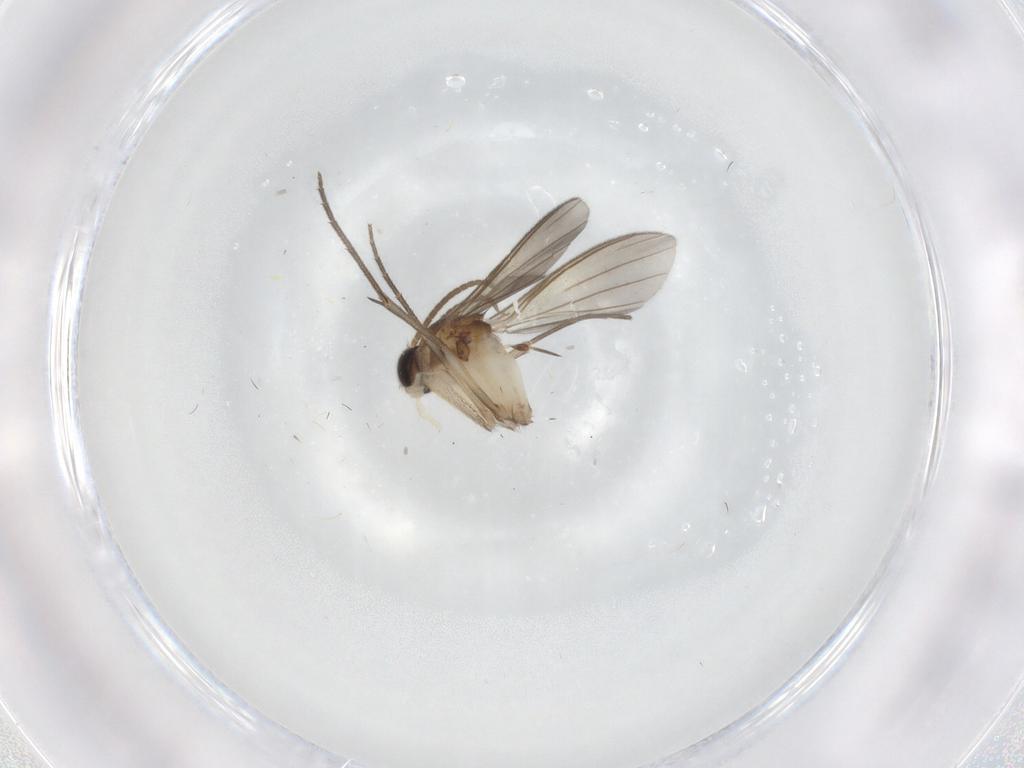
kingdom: Animalia
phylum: Arthropoda
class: Insecta
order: Diptera
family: Mycetophilidae
